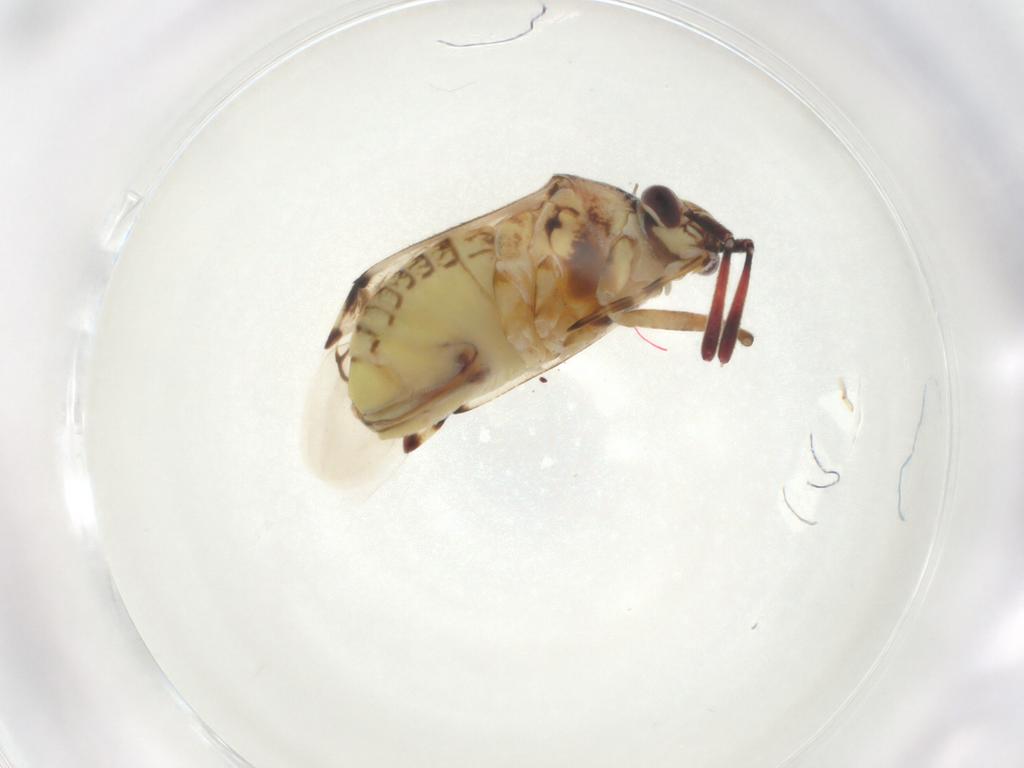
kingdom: Animalia
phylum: Arthropoda
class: Insecta
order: Hemiptera
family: Miridae
